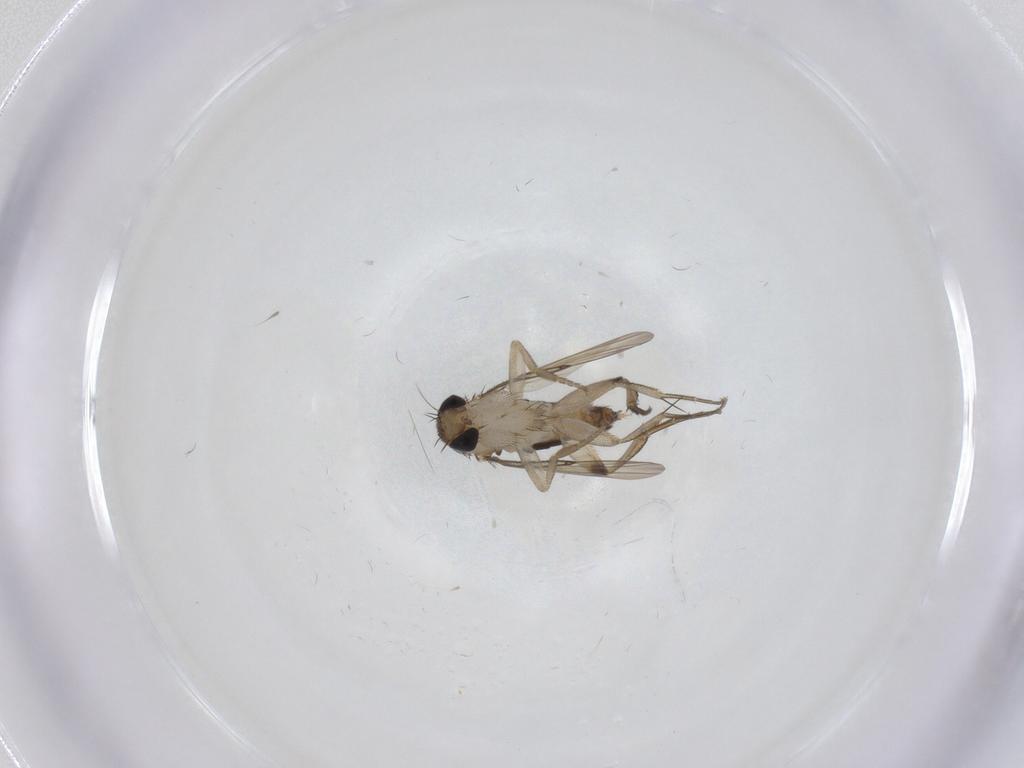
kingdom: Animalia
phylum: Arthropoda
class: Insecta
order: Diptera
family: Phoridae
